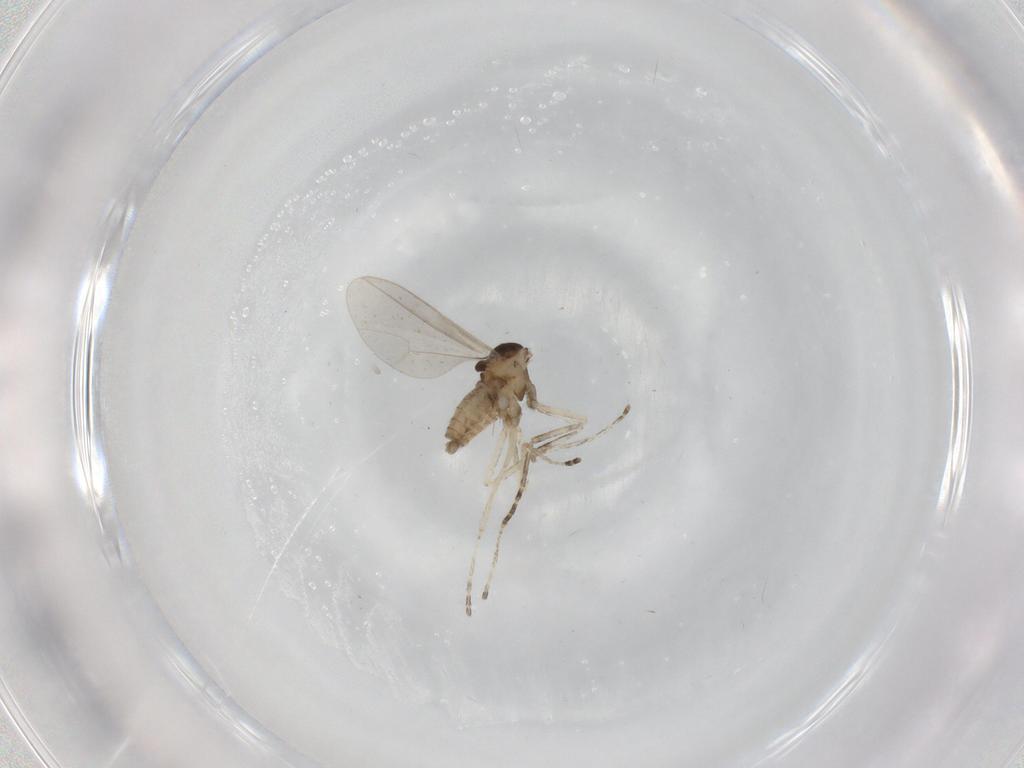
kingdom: Animalia
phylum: Arthropoda
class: Insecta
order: Diptera
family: Cecidomyiidae
